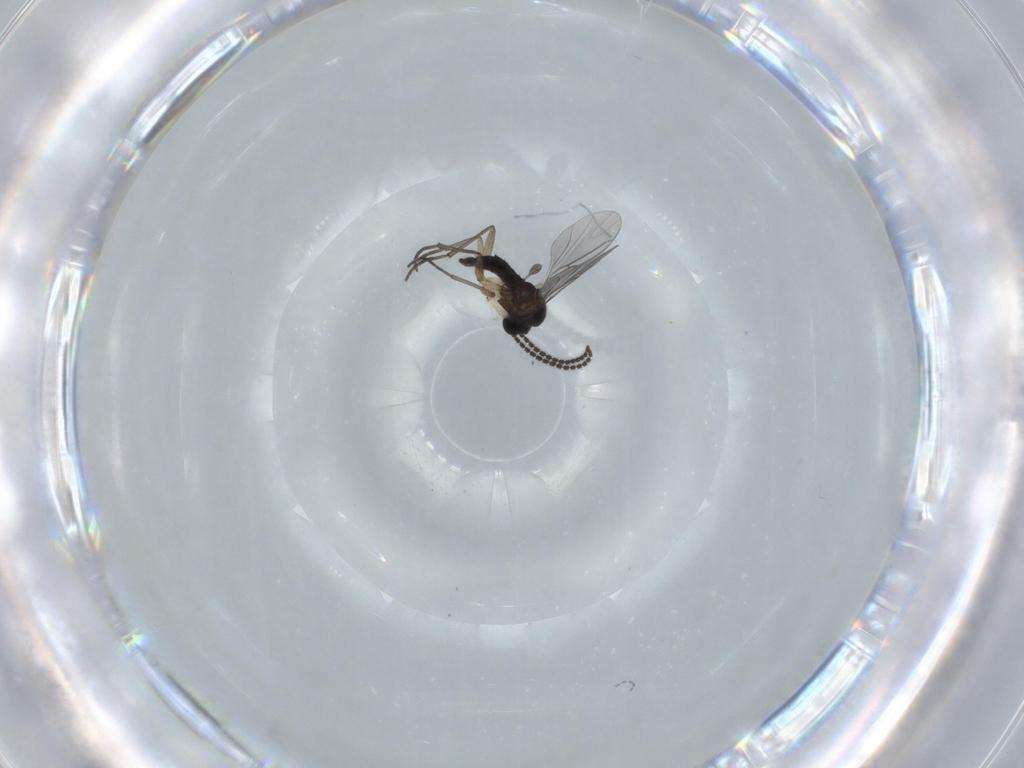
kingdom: Animalia
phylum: Arthropoda
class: Insecta
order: Diptera
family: Sciaridae
